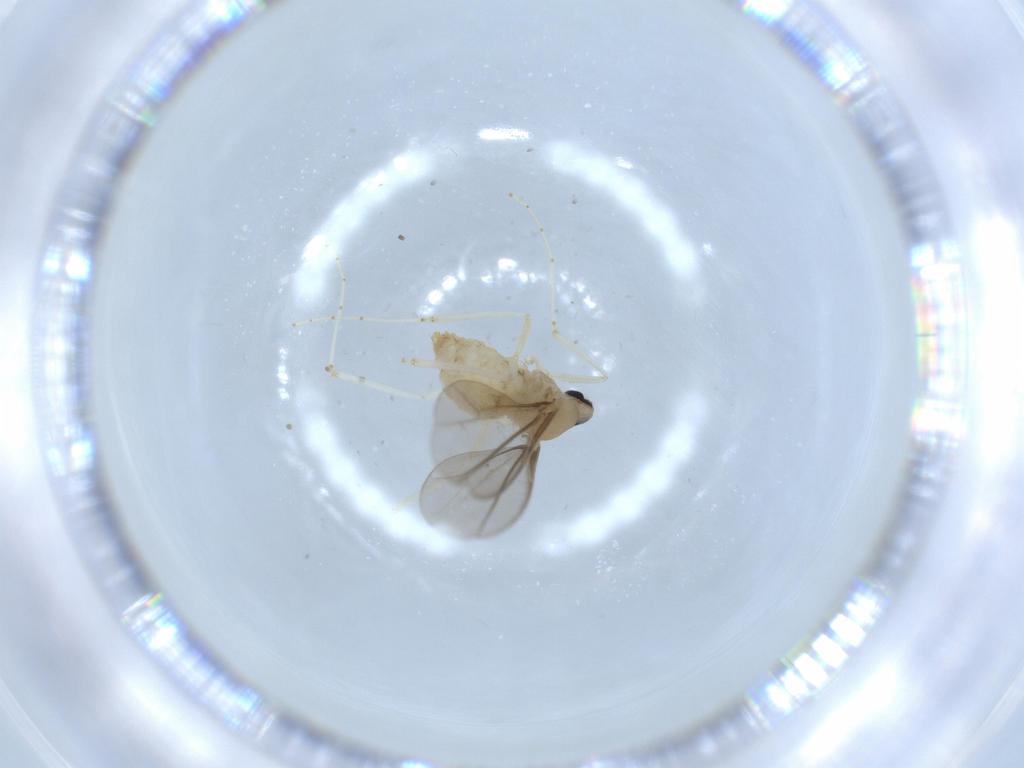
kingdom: Animalia
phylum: Arthropoda
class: Insecta
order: Diptera
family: Cecidomyiidae
